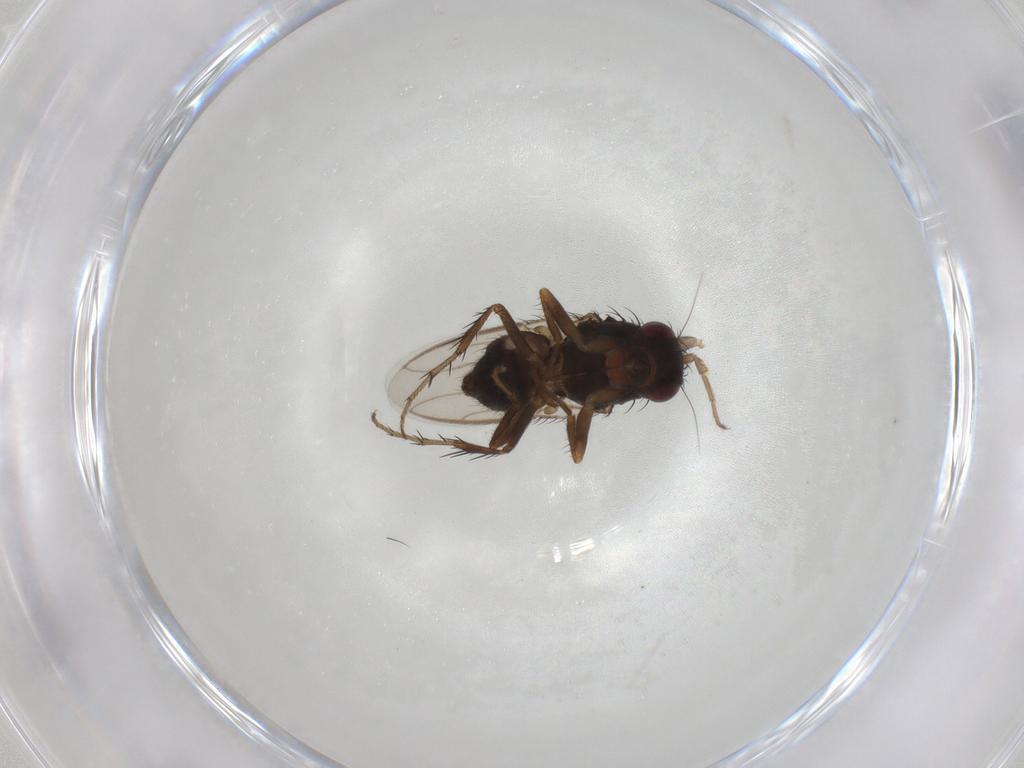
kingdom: Animalia
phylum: Arthropoda
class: Insecta
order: Diptera
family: Sphaeroceridae
